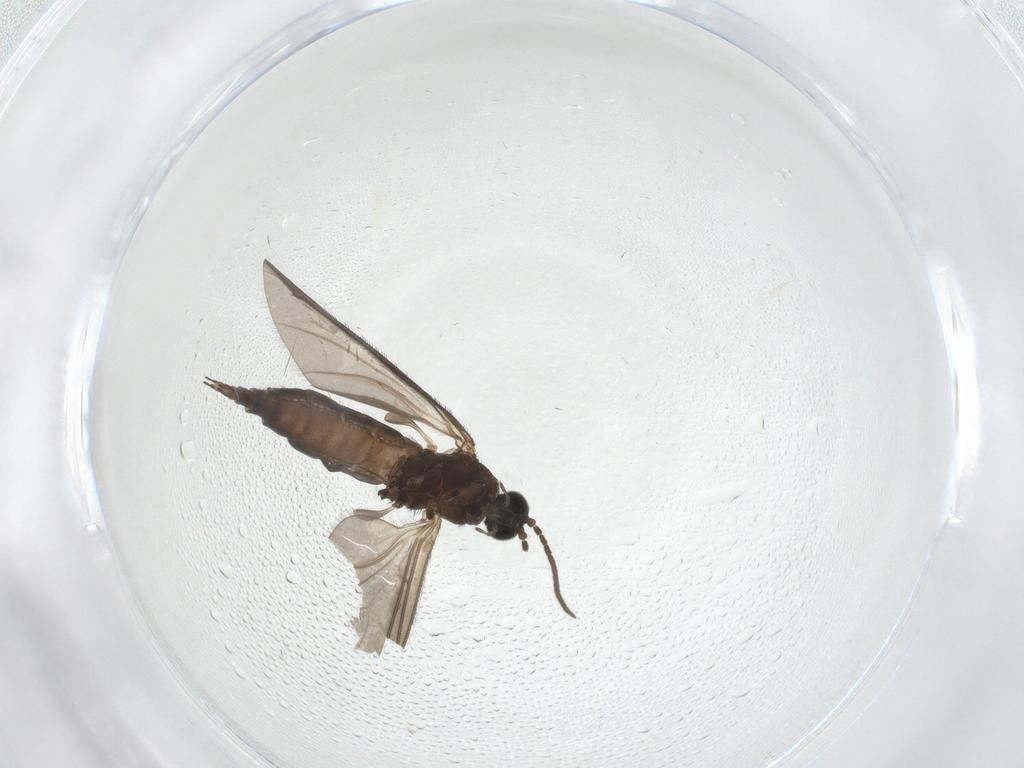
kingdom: Animalia
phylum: Arthropoda
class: Insecta
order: Diptera
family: Sciaridae
